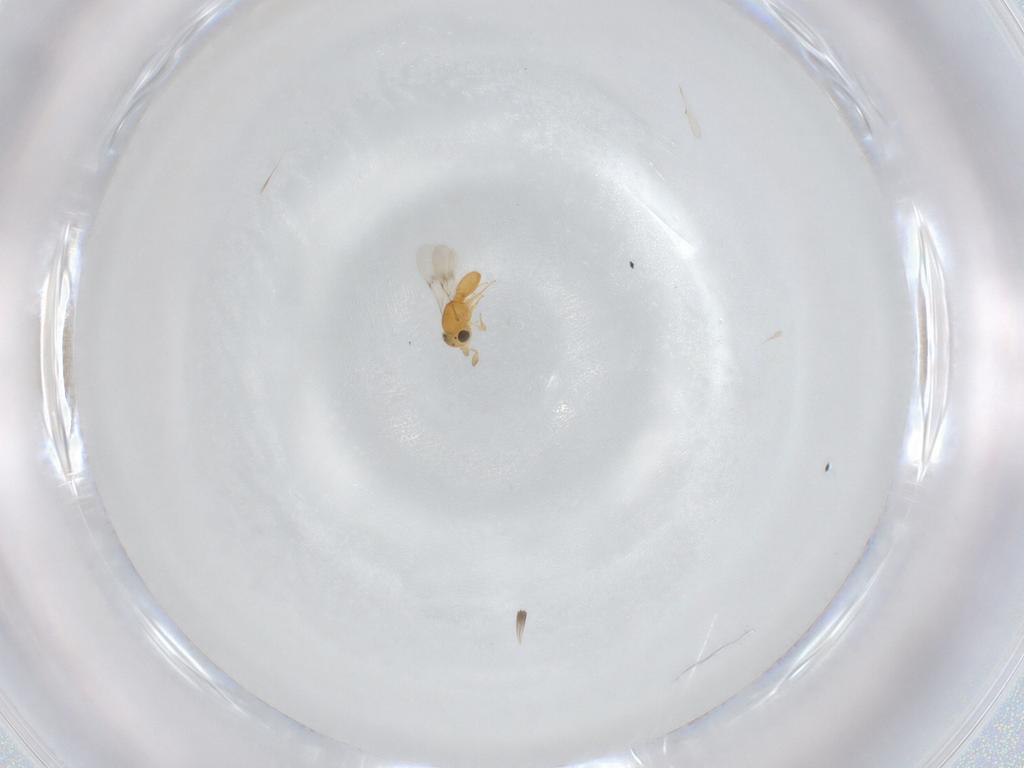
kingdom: Animalia
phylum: Arthropoda
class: Insecta
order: Hymenoptera
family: Scelionidae
